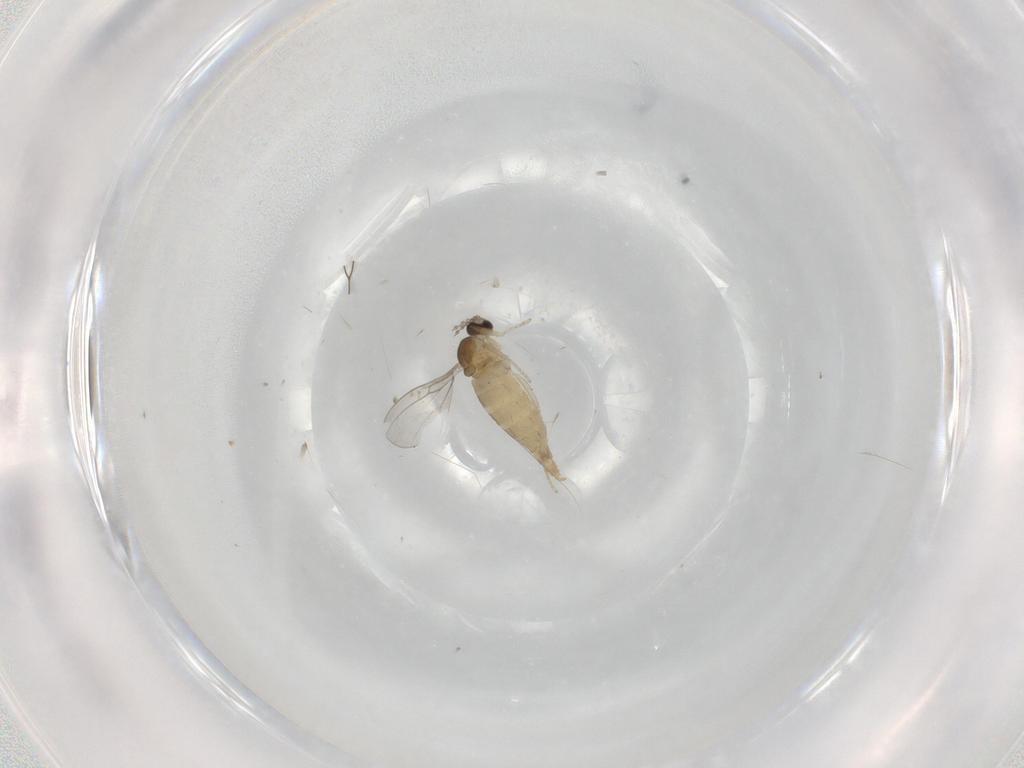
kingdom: Animalia
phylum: Arthropoda
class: Insecta
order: Diptera
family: Cecidomyiidae
